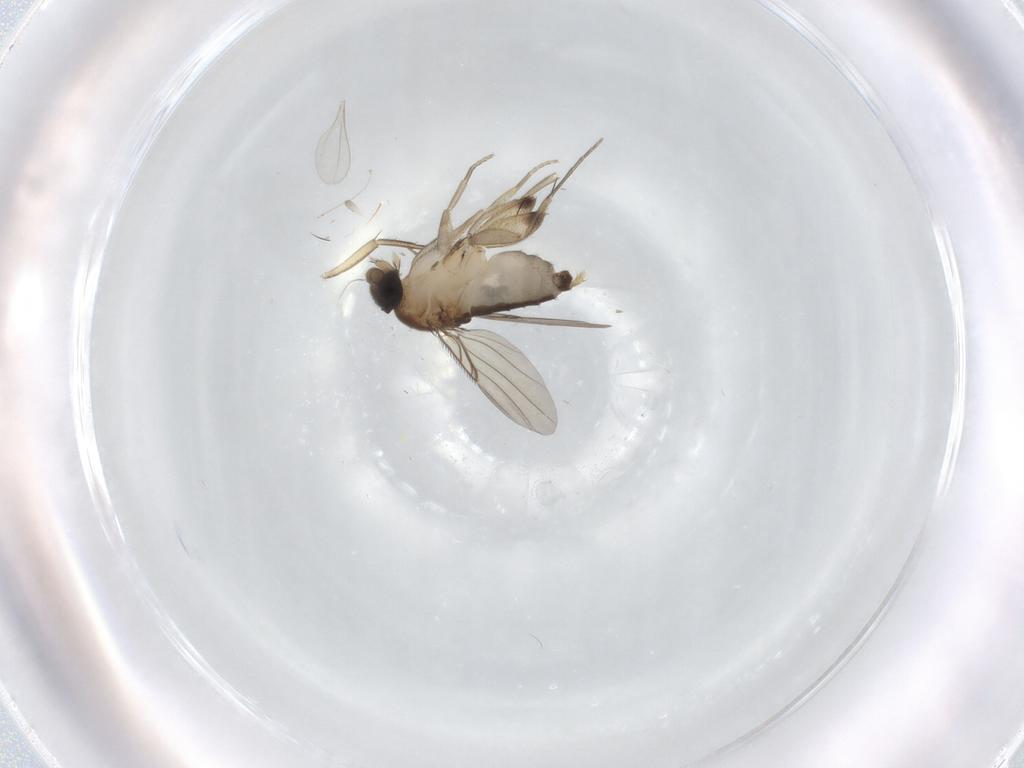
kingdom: Animalia
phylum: Arthropoda
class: Insecta
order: Diptera
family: Phoridae
